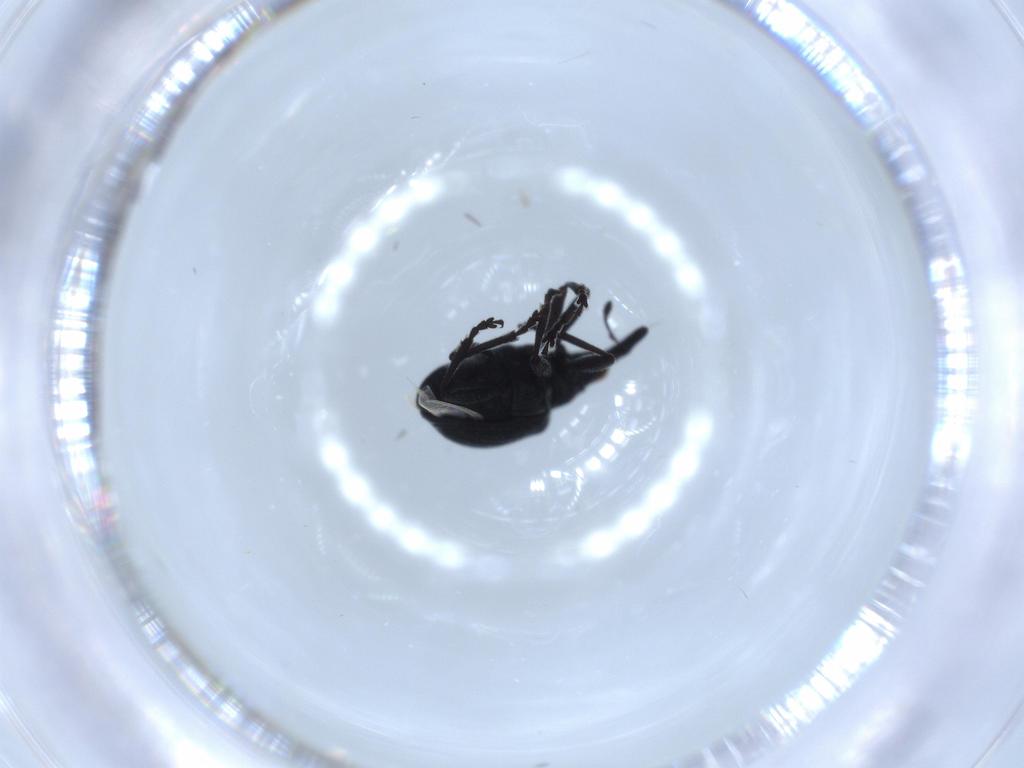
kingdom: Animalia
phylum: Arthropoda
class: Insecta
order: Coleoptera
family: Brentidae
